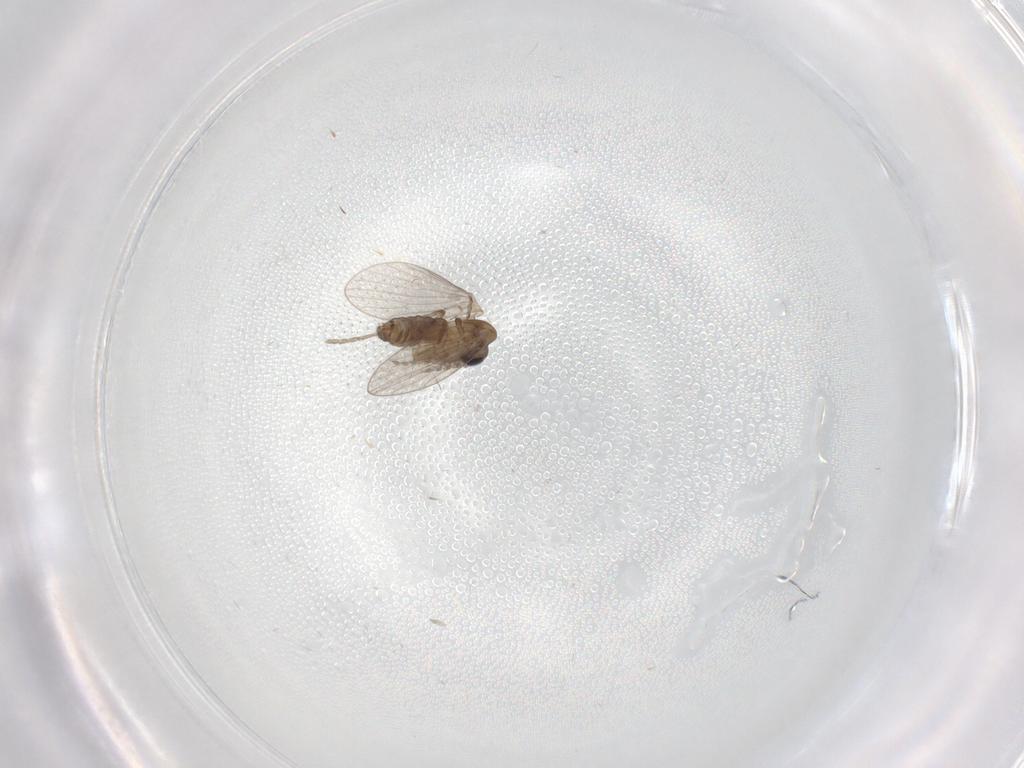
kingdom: Animalia
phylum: Arthropoda
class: Insecta
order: Diptera
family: Psychodidae
